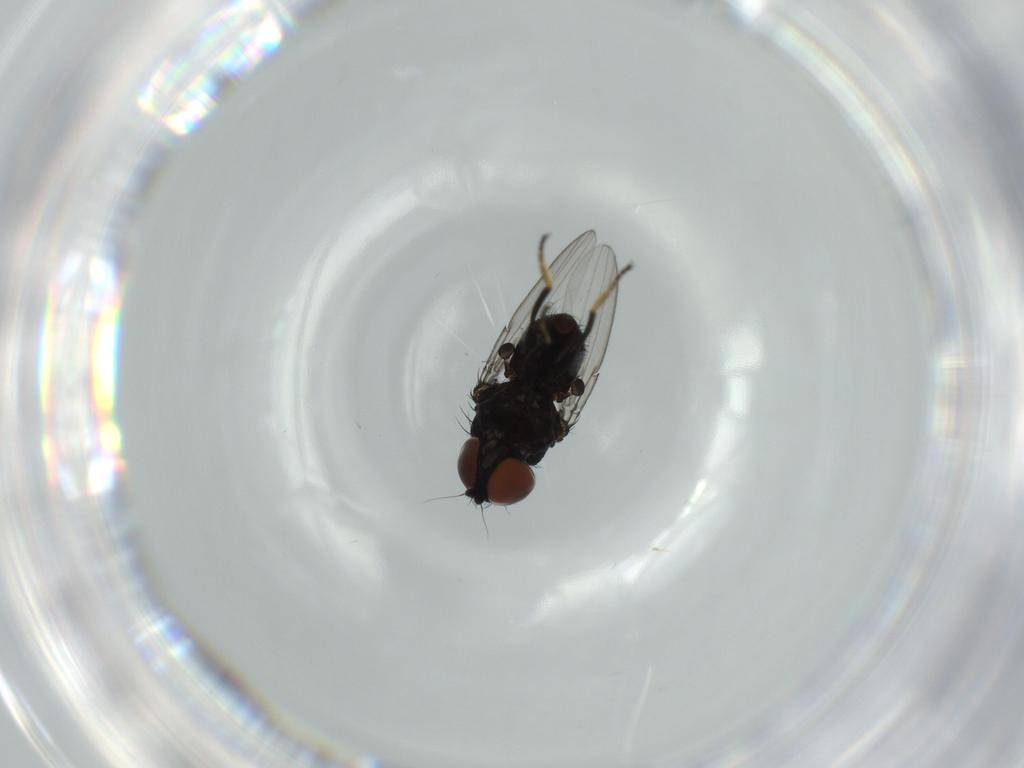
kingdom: Animalia
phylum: Arthropoda
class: Insecta
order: Diptera
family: Milichiidae
